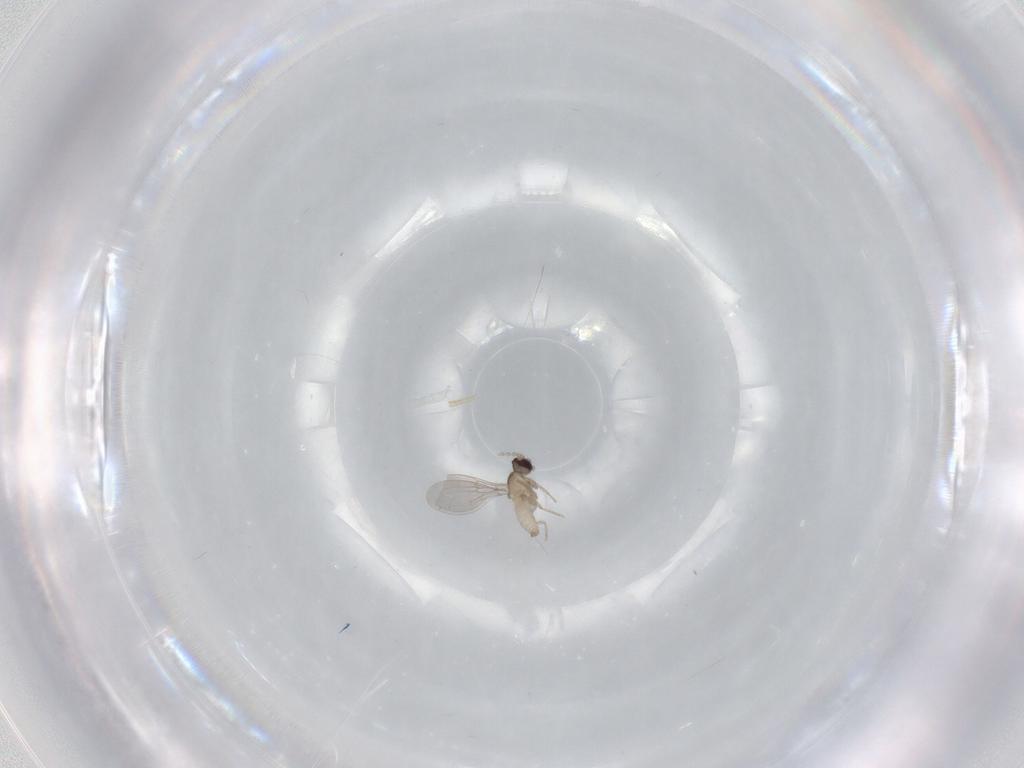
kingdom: Animalia
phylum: Arthropoda
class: Insecta
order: Diptera
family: Cecidomyiidae
